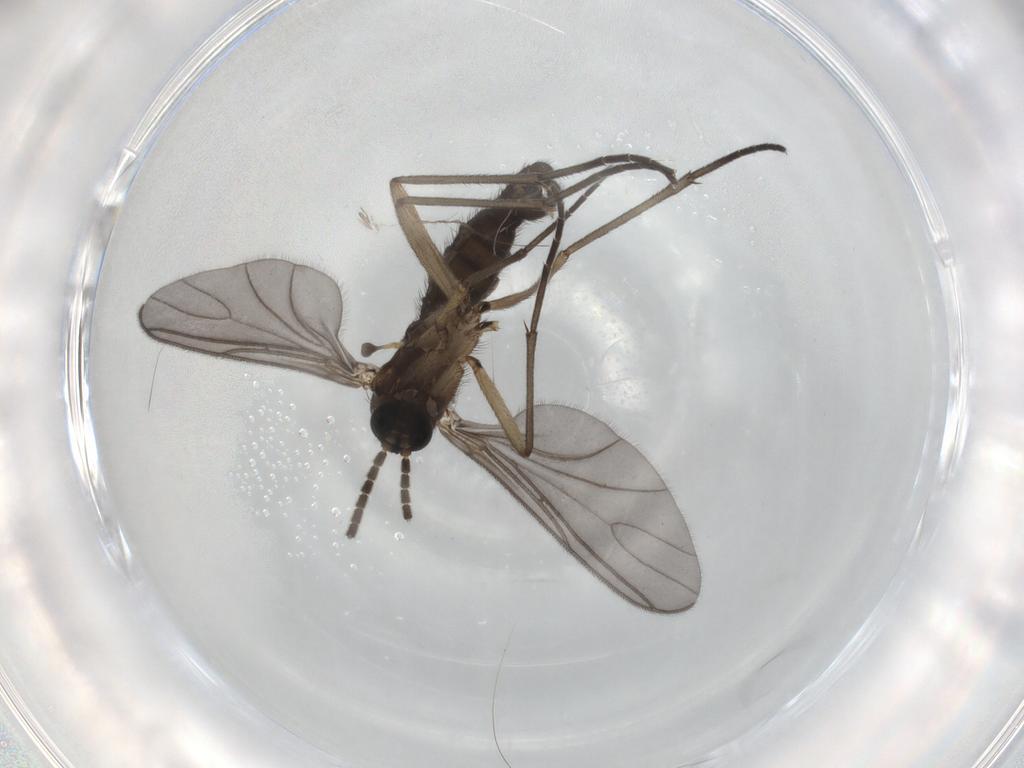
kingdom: Animalia
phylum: Arthropoda
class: Insecta
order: Diptera
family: Sciaridae
